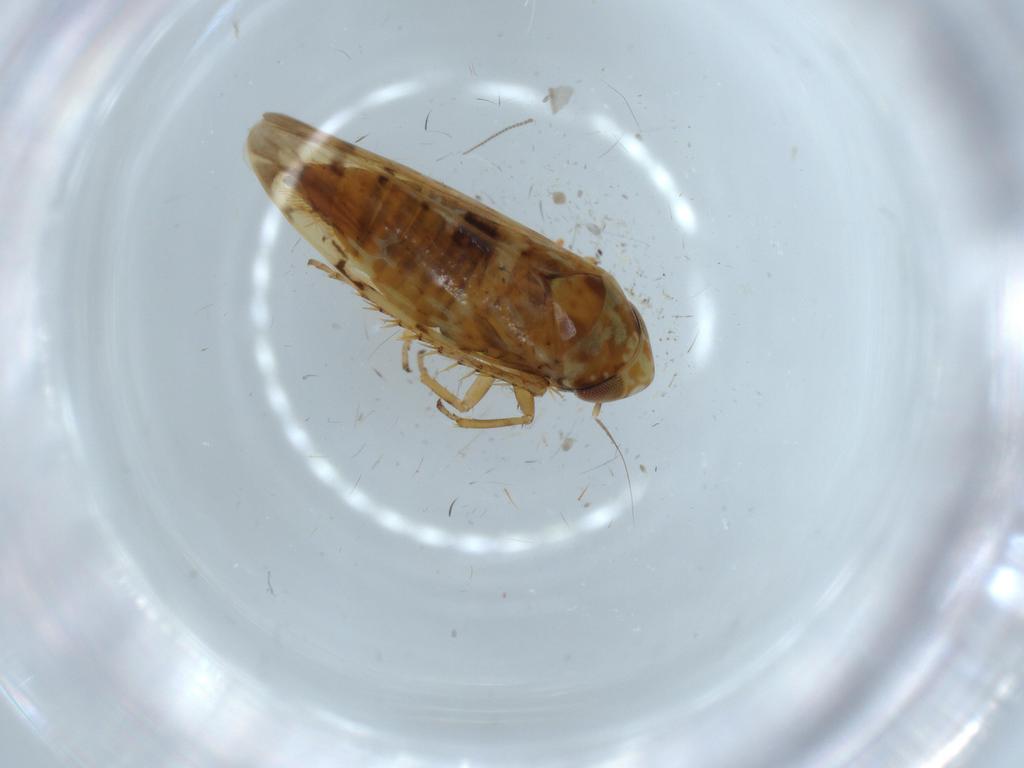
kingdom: Animalia
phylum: Arthropoda
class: Insecta
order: Hemiptera
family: Cicadellidae
